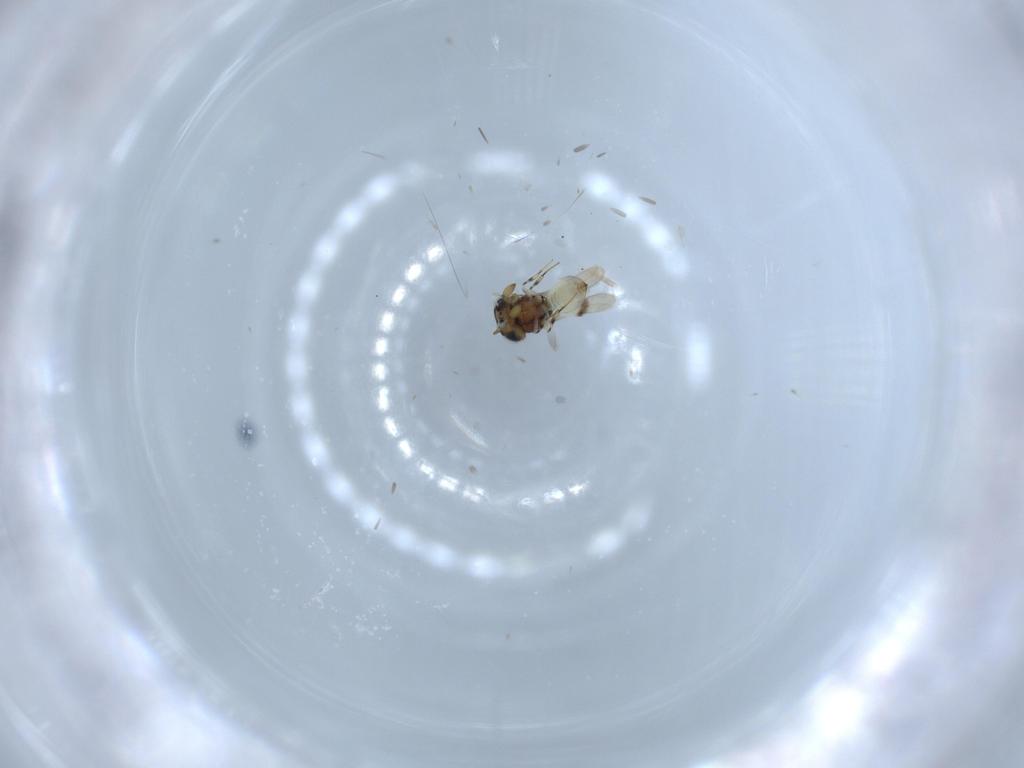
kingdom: Animalia
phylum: Arthropoda
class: Insecta
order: Hymenoptera
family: Scelionidae
